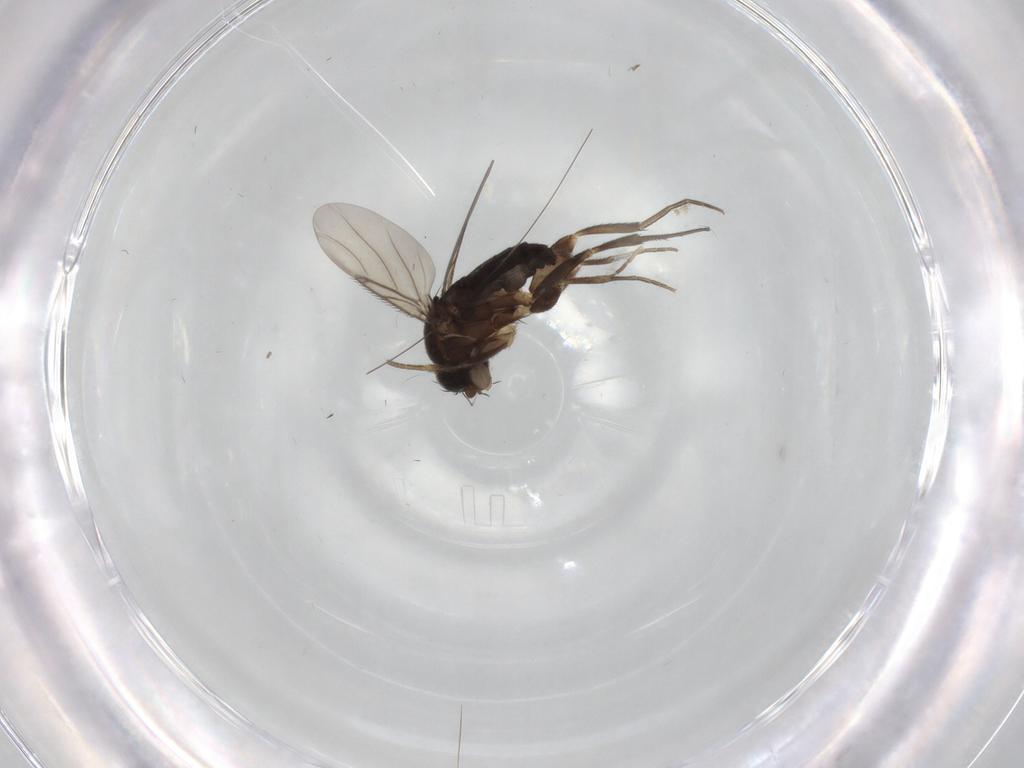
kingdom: Animalia
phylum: Arthropoda
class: Insecta
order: Diptera
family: Phoridae
